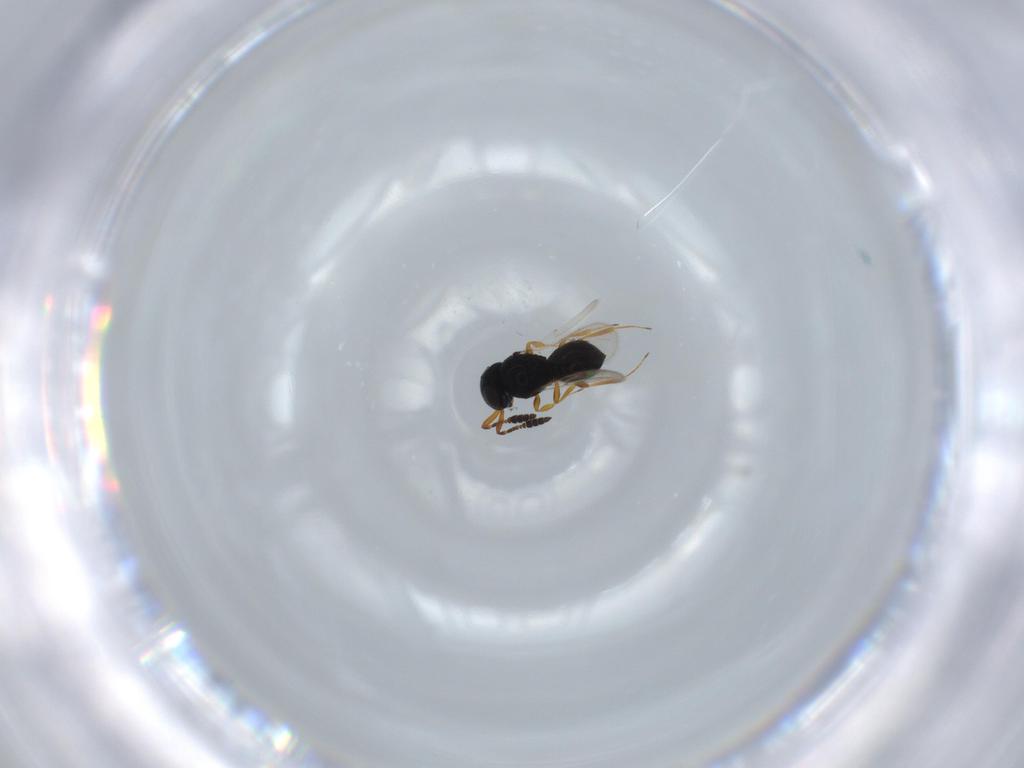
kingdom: Animalia
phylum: Arthropoda
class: Insecta
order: Hymenoptera
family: Scelionidae
